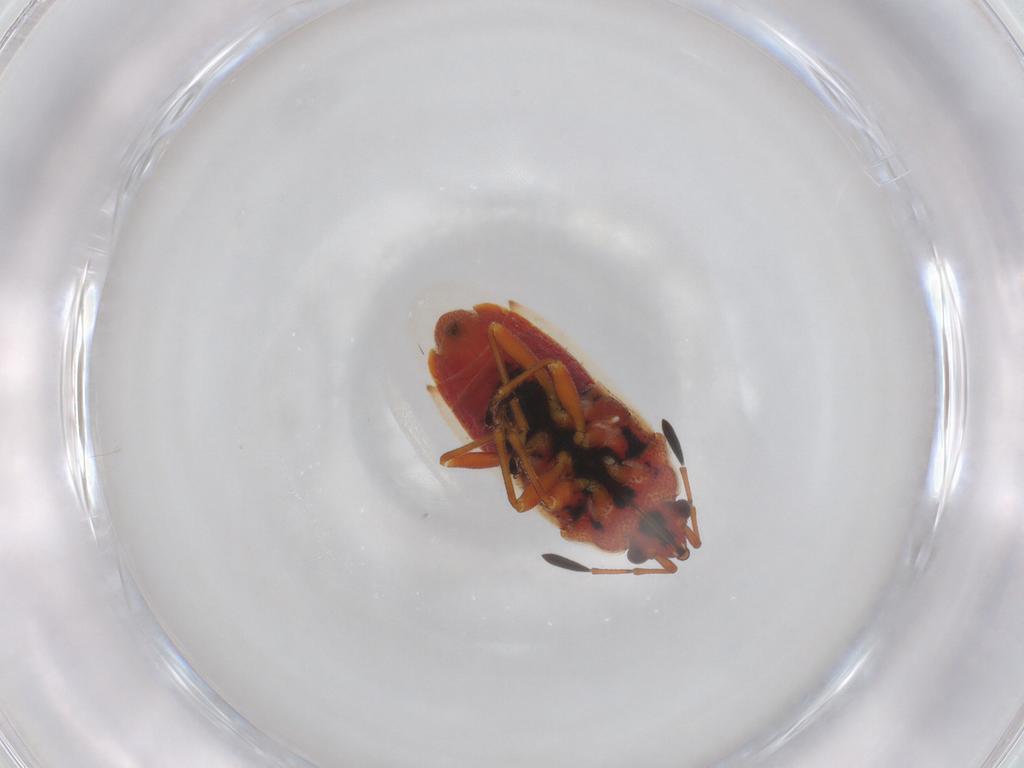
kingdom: Animalia
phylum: Arthropoda
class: Insecta
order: Hemiptera
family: Lygaeidae
